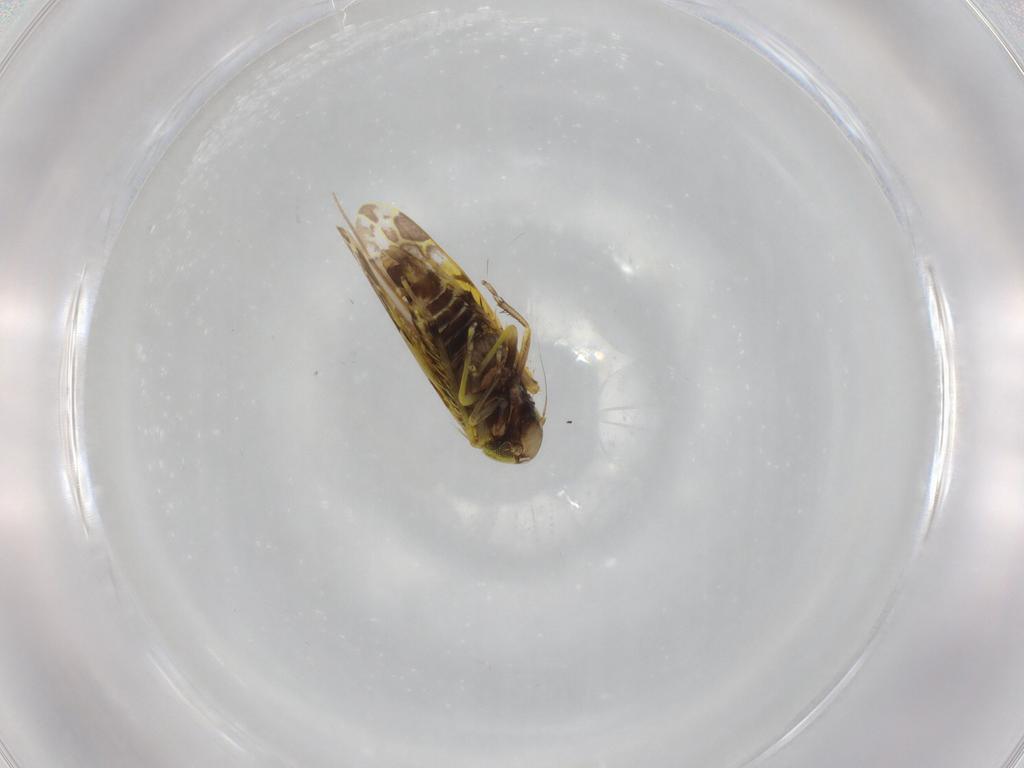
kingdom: Animalia
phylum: Arthropoda
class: Insecta
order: Hemiptera
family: Cicadellidae
